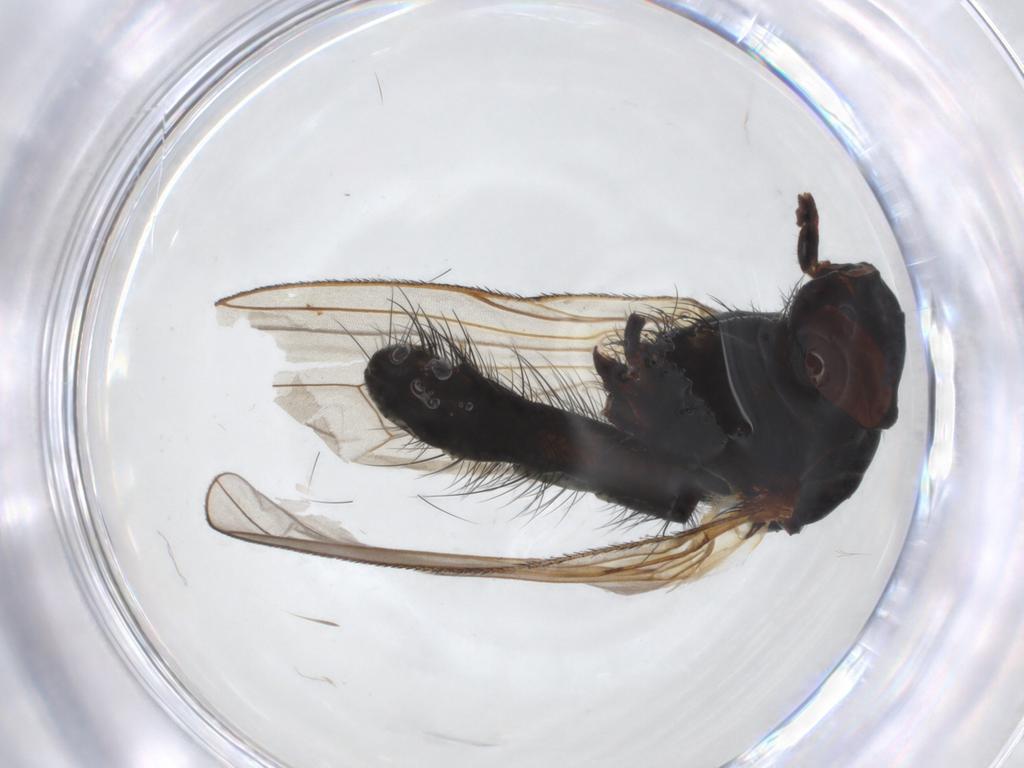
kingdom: Animalia
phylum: Arthropoda
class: Insecta
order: Diptera
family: Anthomyiidae
